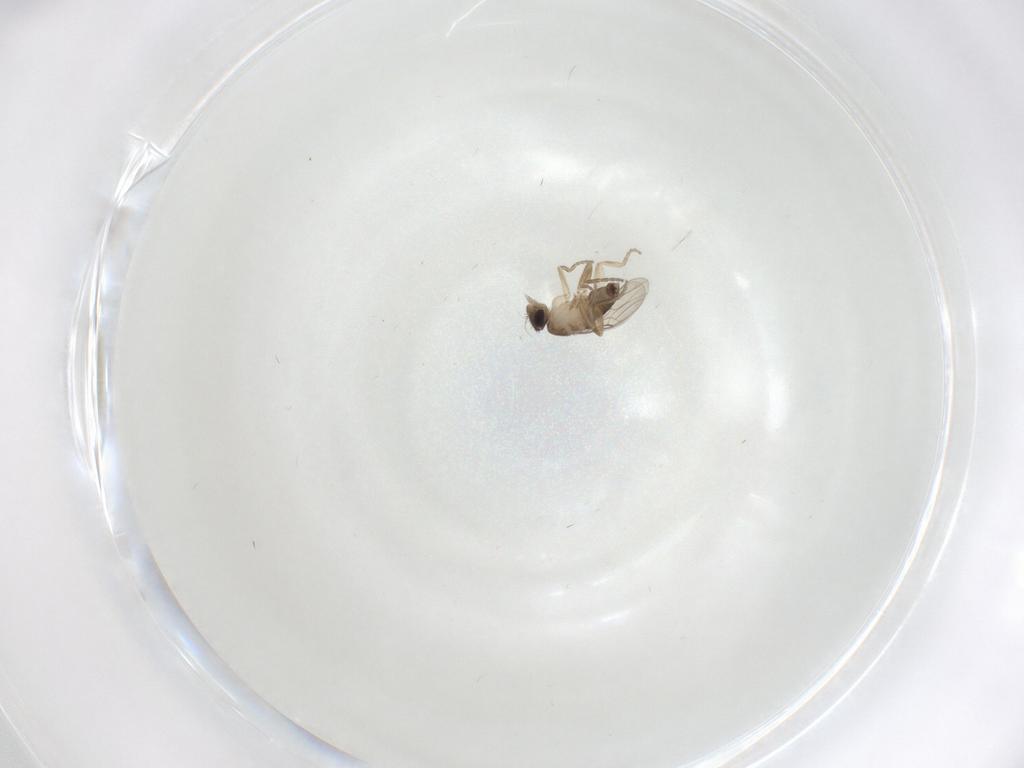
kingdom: Animalia
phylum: Arthropoda
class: Insecta
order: Diptera
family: Phoridae
